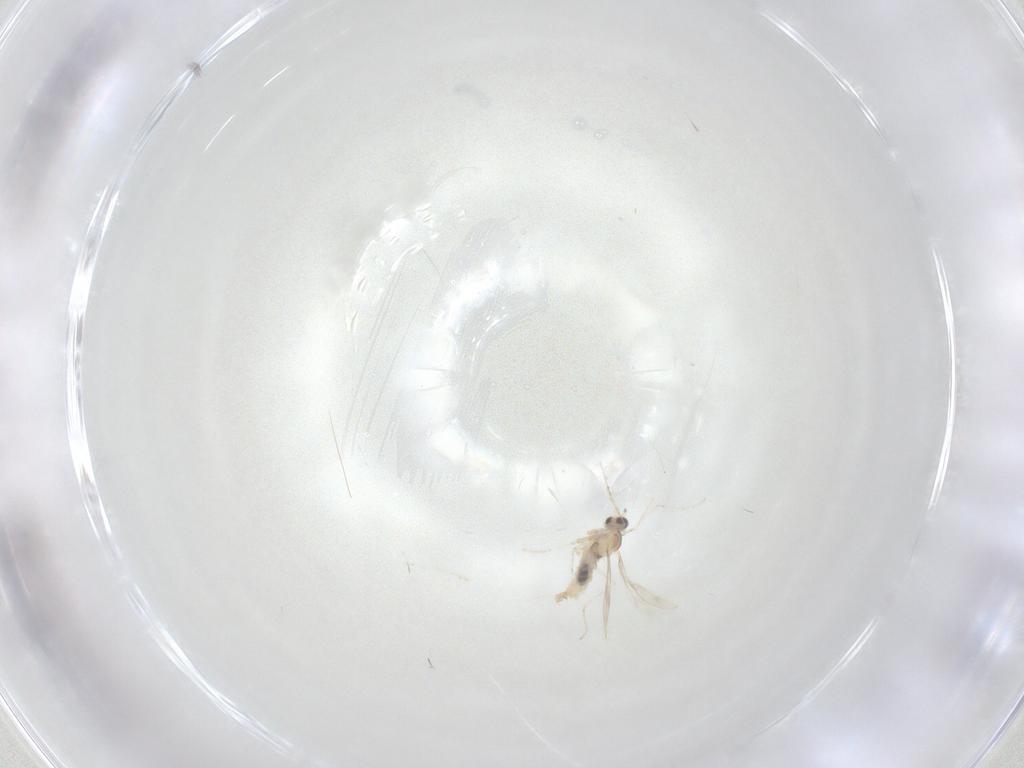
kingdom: Animalia
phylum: Arthropoda
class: Insecta
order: Diptera
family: Cecidomyiidae
